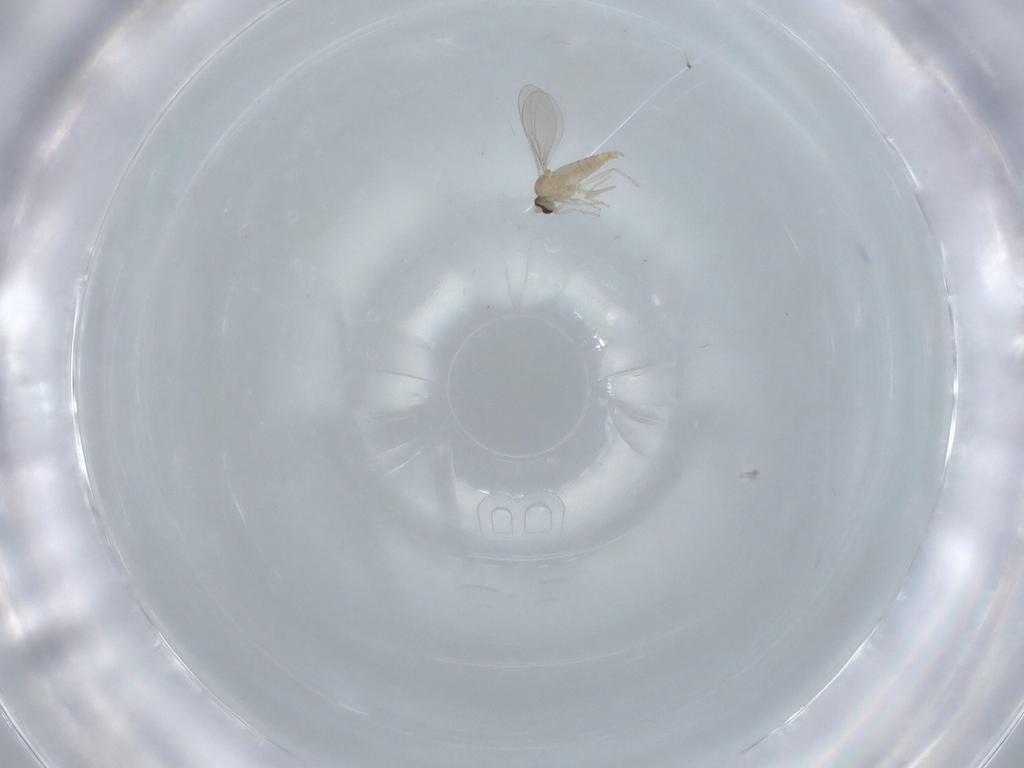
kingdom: Animalia
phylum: Arthropoda
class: Insecta
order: Diptera
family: Cecidomyiidae
